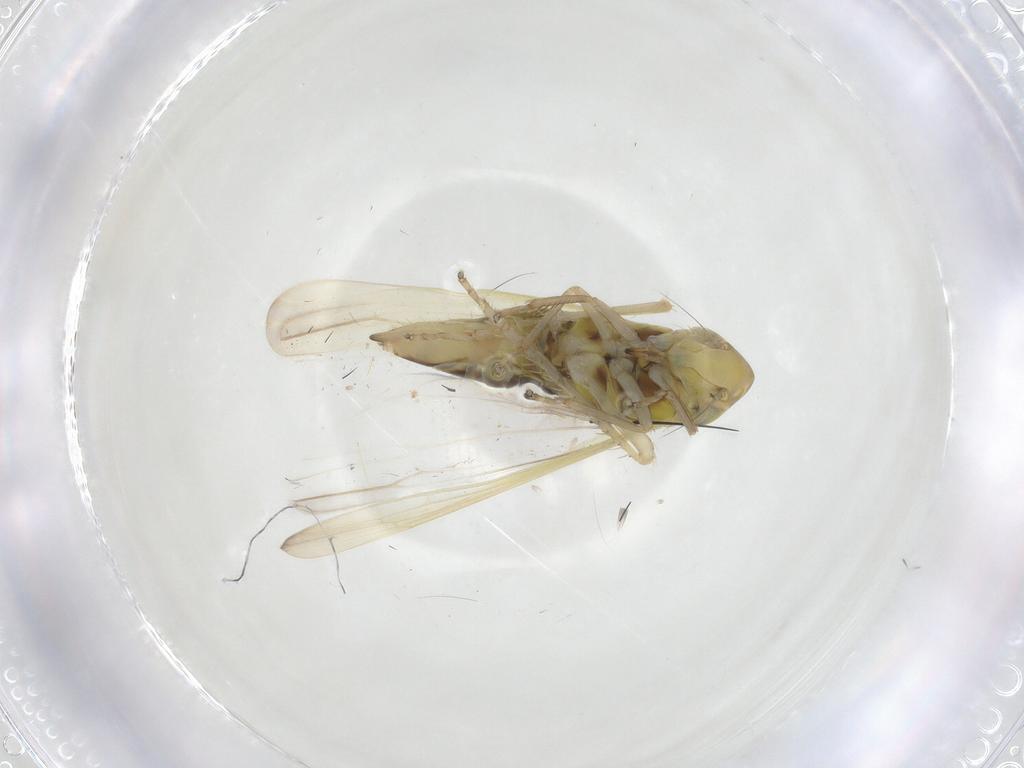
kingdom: Animalia
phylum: Arthropoda
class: Insecta
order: Hemiptera
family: Cicadellidae
